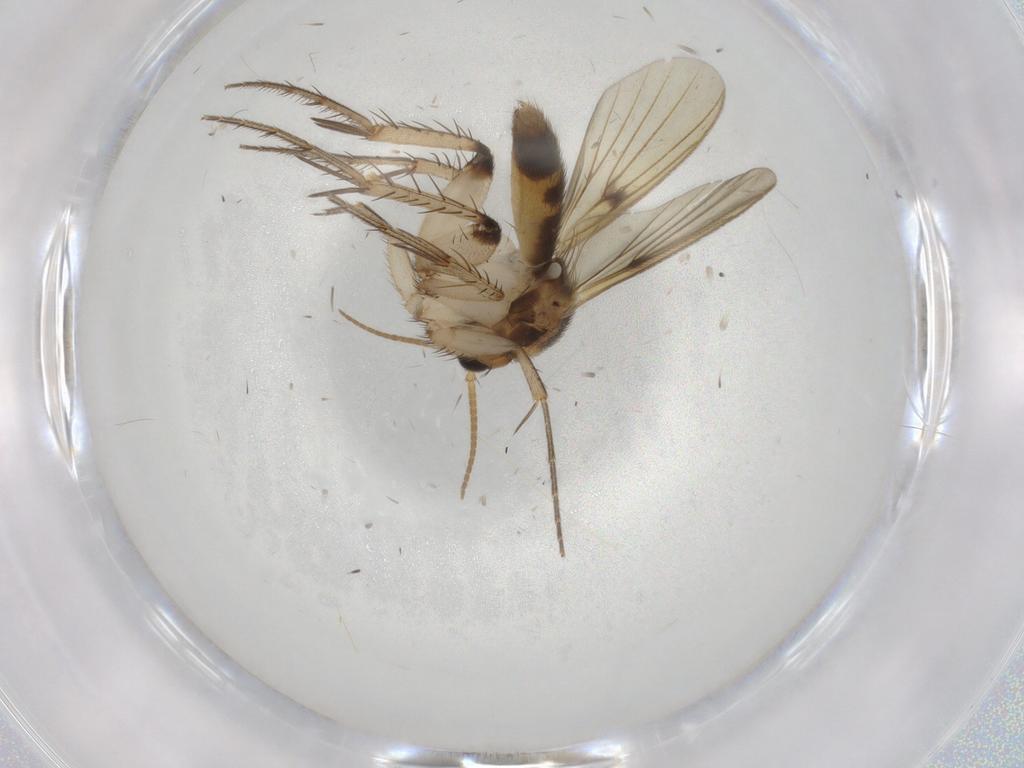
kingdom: Animalia
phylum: Arthropoda
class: Insecta
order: Diptera
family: Mycetophilidae
